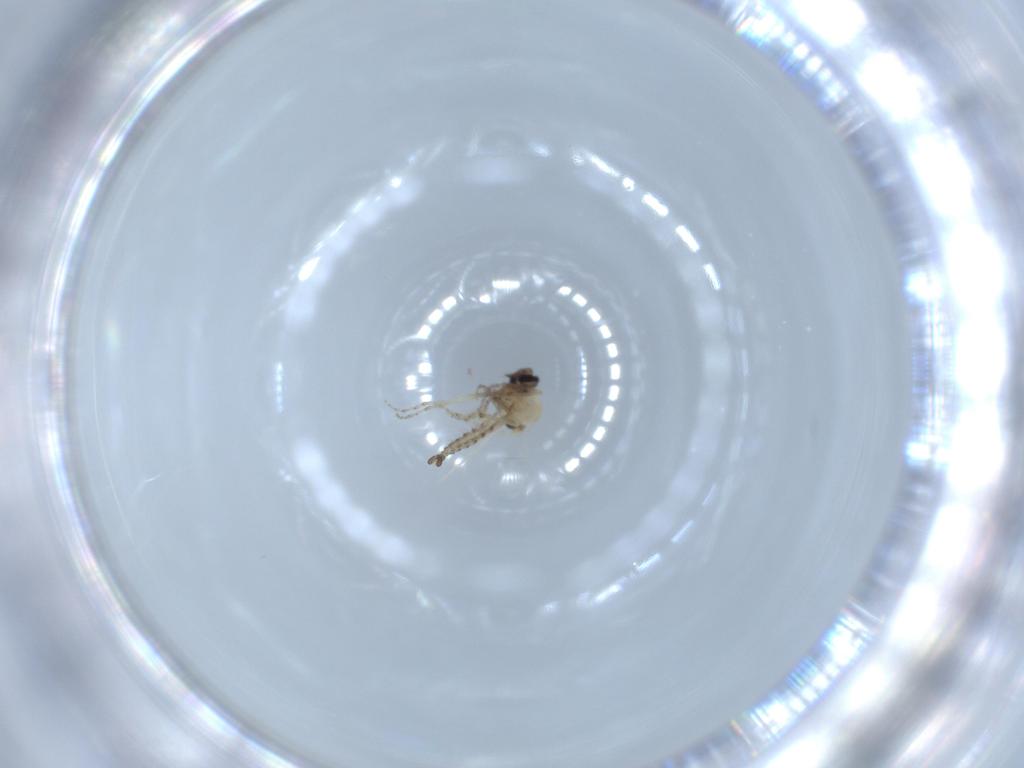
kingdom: Animalia
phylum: Arthropoda
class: Insecta
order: Diptera
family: Ceratopogonidae
